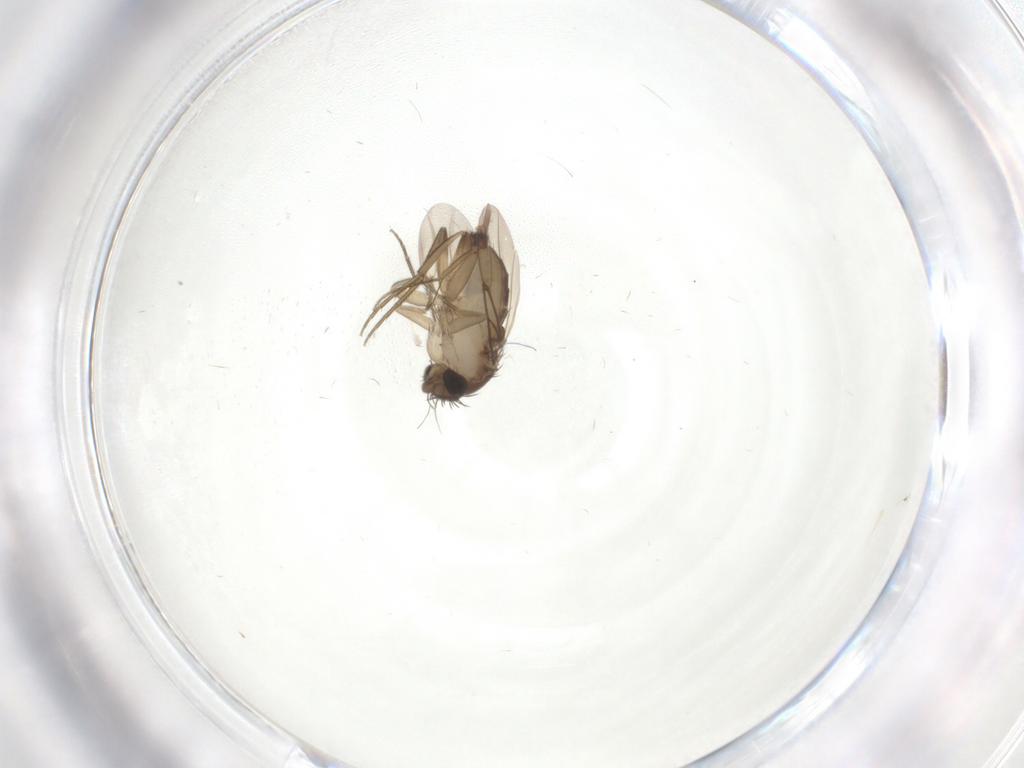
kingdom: Animalia
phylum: Arthropoda
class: Insecta
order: Diptera
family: Phoridae
